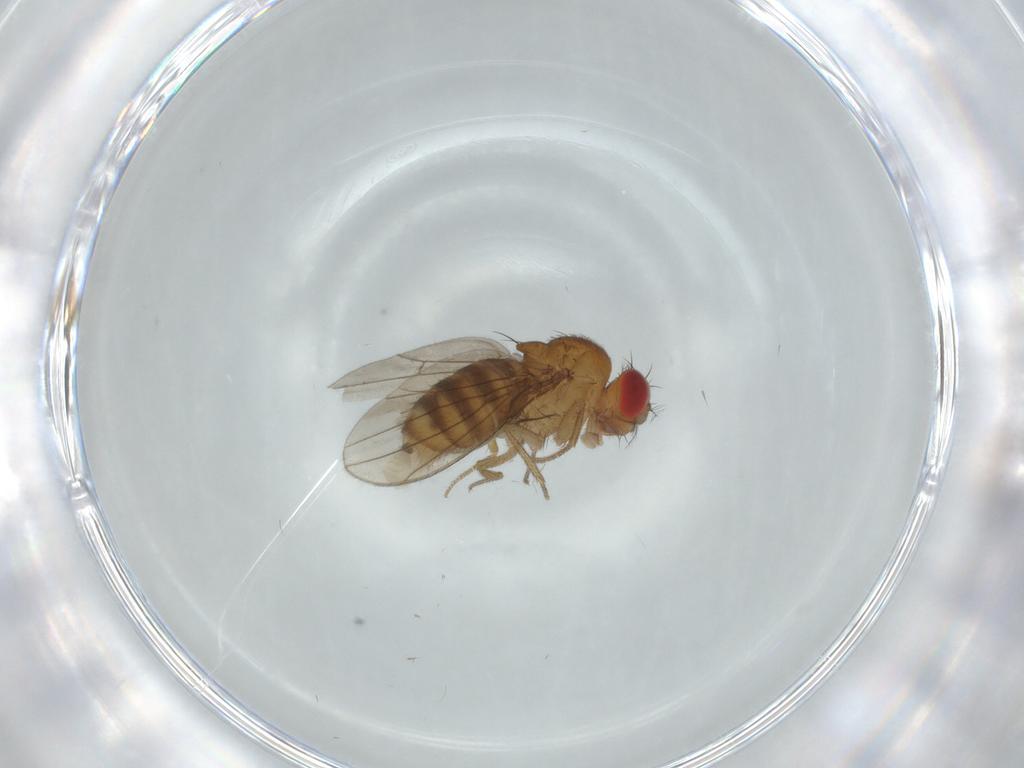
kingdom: Animalia
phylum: Arthropoda
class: Insecta
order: Diptera
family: Drosophilidae
